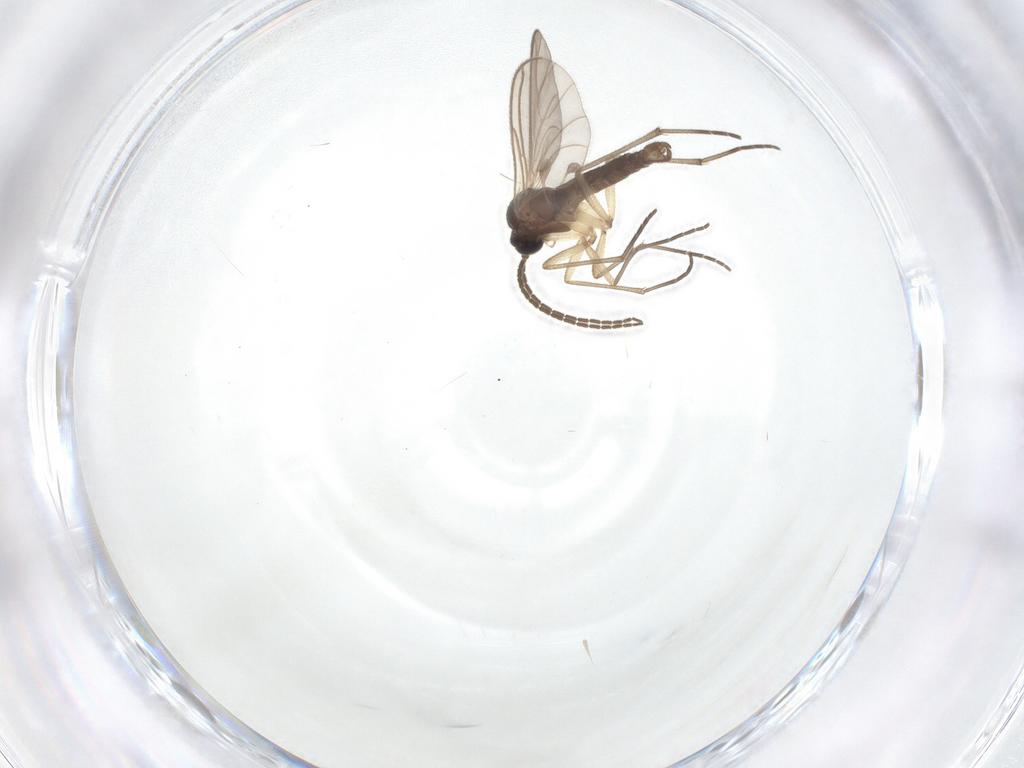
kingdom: Animalia
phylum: Arthropoda
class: Insecta
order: Diptera
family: Sciaridae
